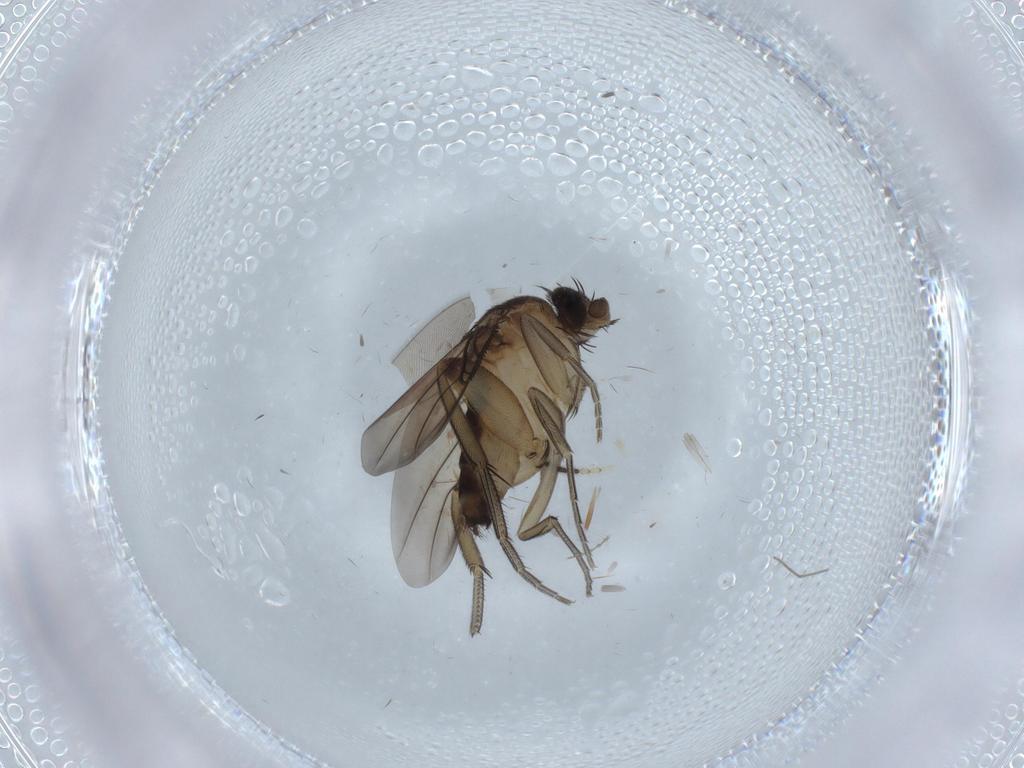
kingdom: Animalia
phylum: Arthropoda
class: Insecta
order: Diptera
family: Phoridae
